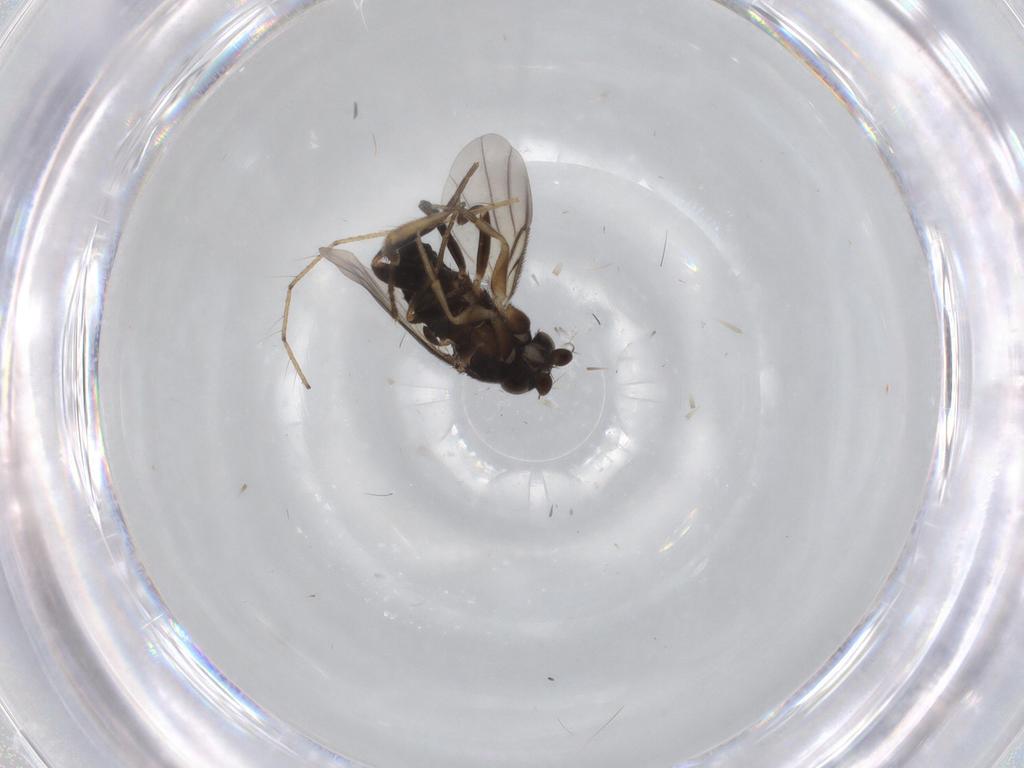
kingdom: Animalia
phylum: Arthropoda
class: Insecta
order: Diptera
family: Limoniidae
